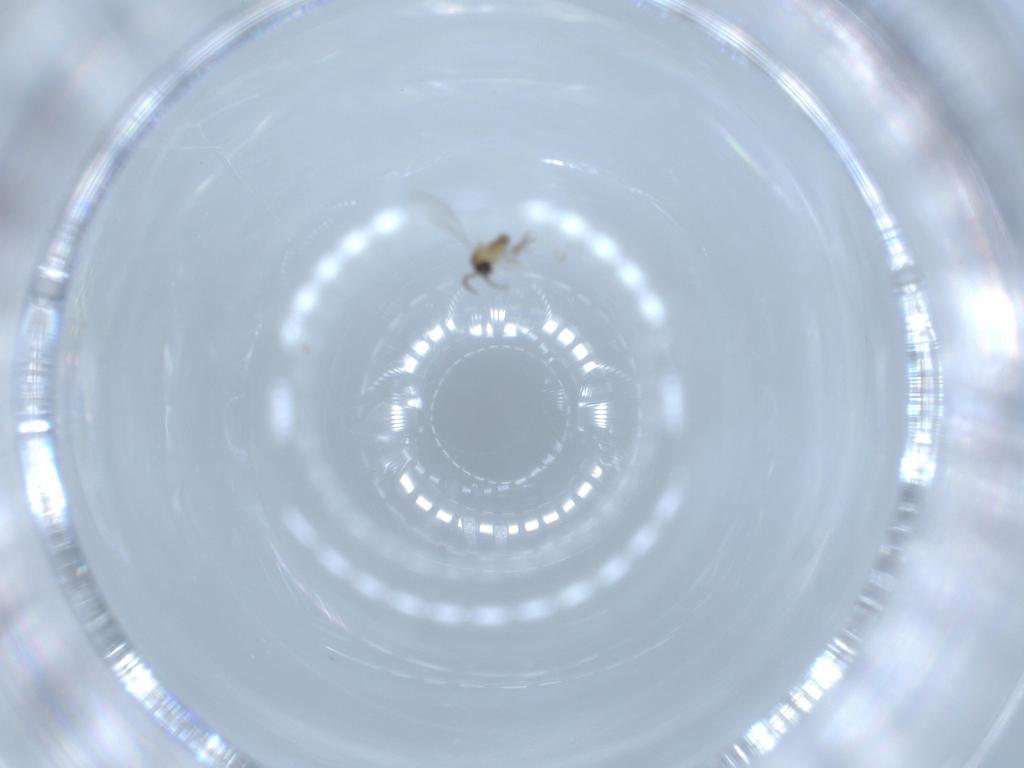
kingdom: Animalia
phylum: Arthropoda
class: Insecta
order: Diptera
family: Cecidomyiidae
